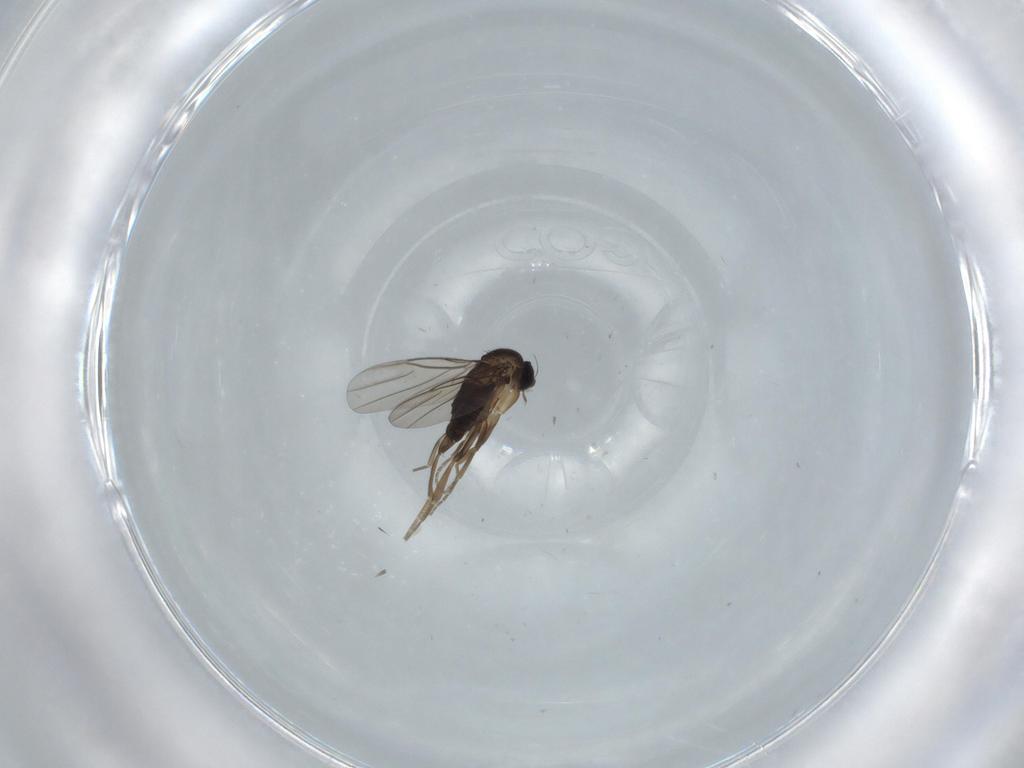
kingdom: Animalia
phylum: Arthropoda
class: Insecta
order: Diptera
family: Phoridae
